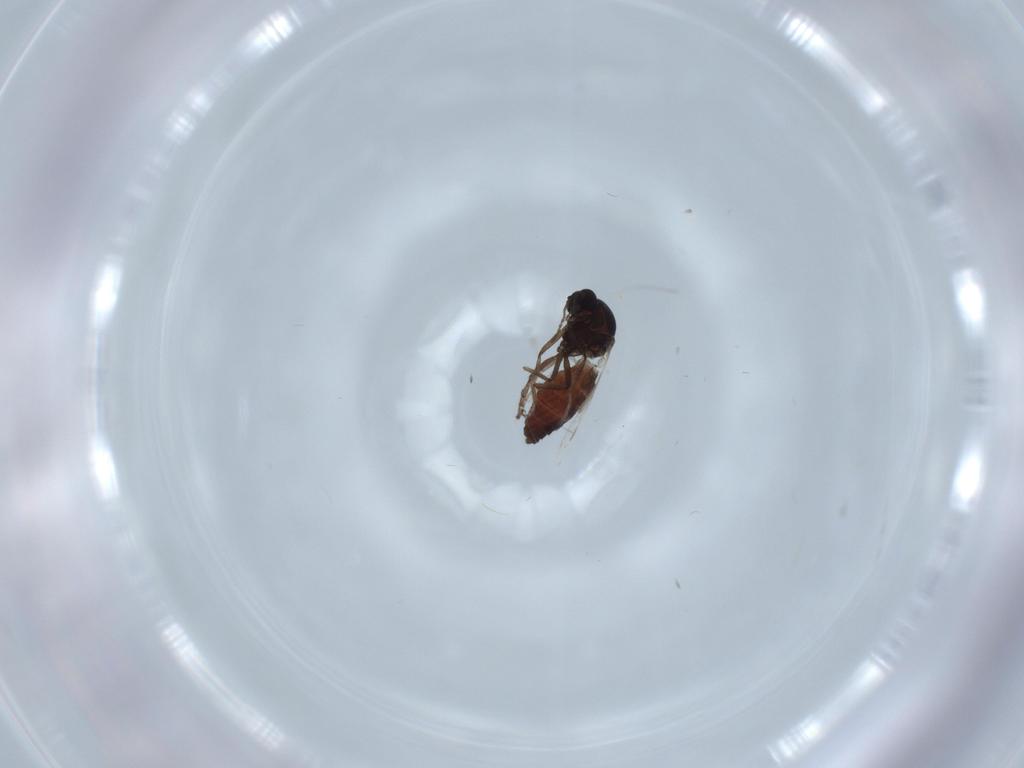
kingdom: Animalia
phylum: Arthropoda
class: Insecta
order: Diptera
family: Ceratopogonidae
